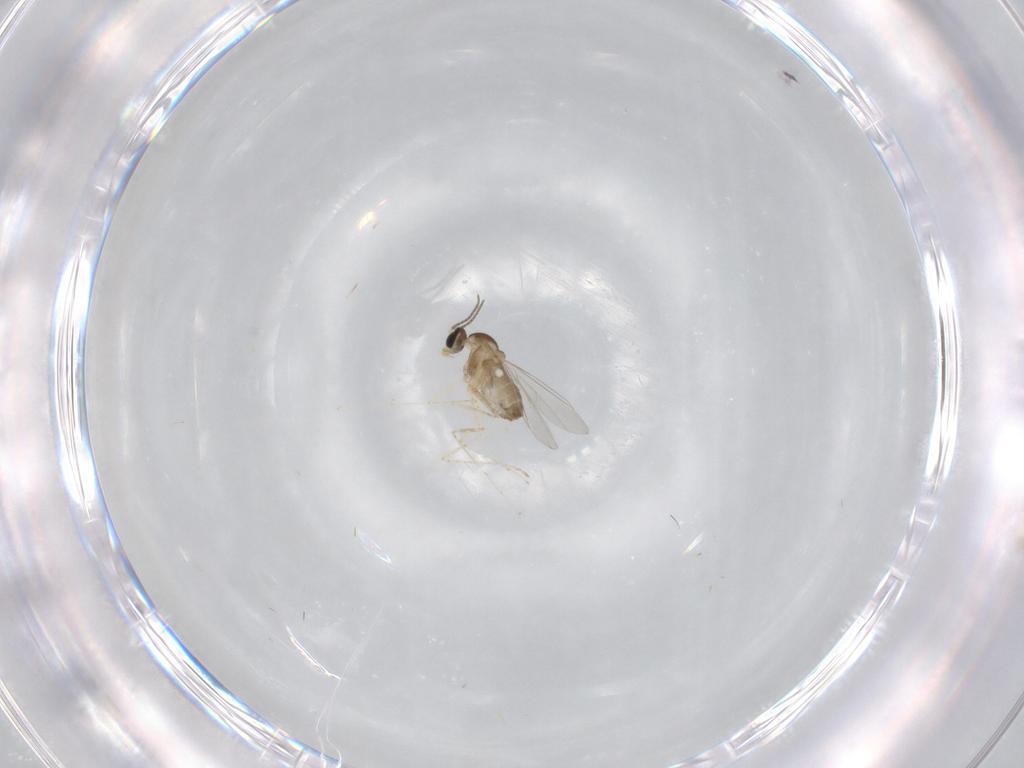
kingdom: Animalia
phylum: Arthropoda
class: Insecta
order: Diptera
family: Cecidomyiidae
